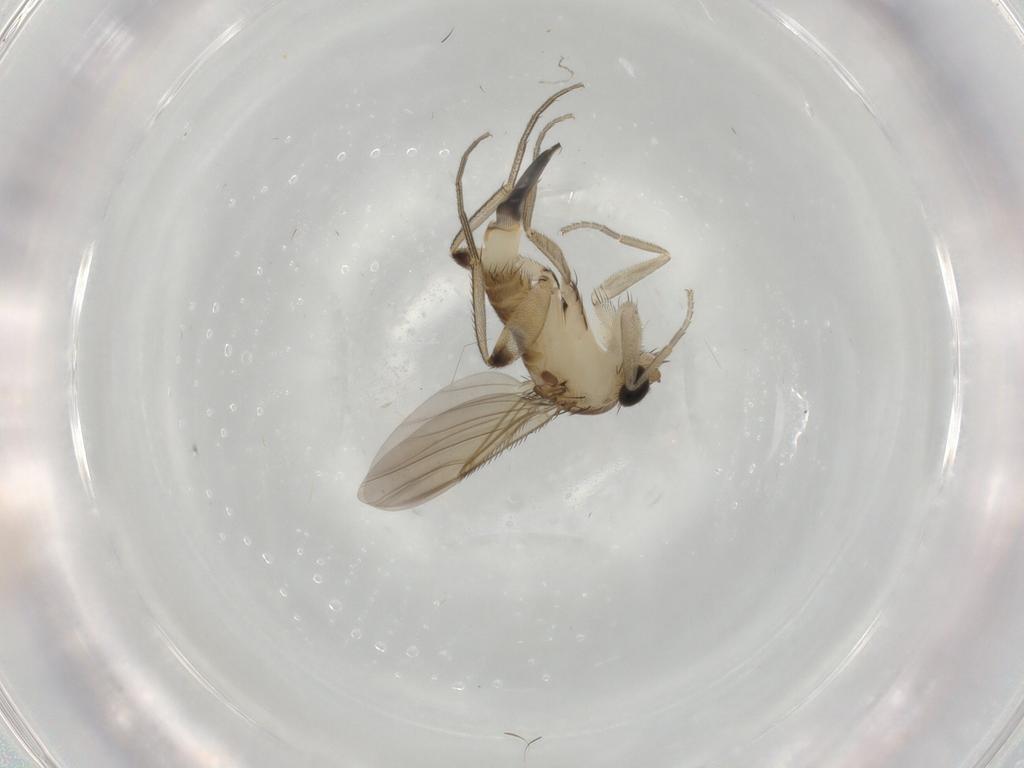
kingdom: Animalia
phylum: Arthropoda
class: Insecta
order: Diptera
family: Phoridae
